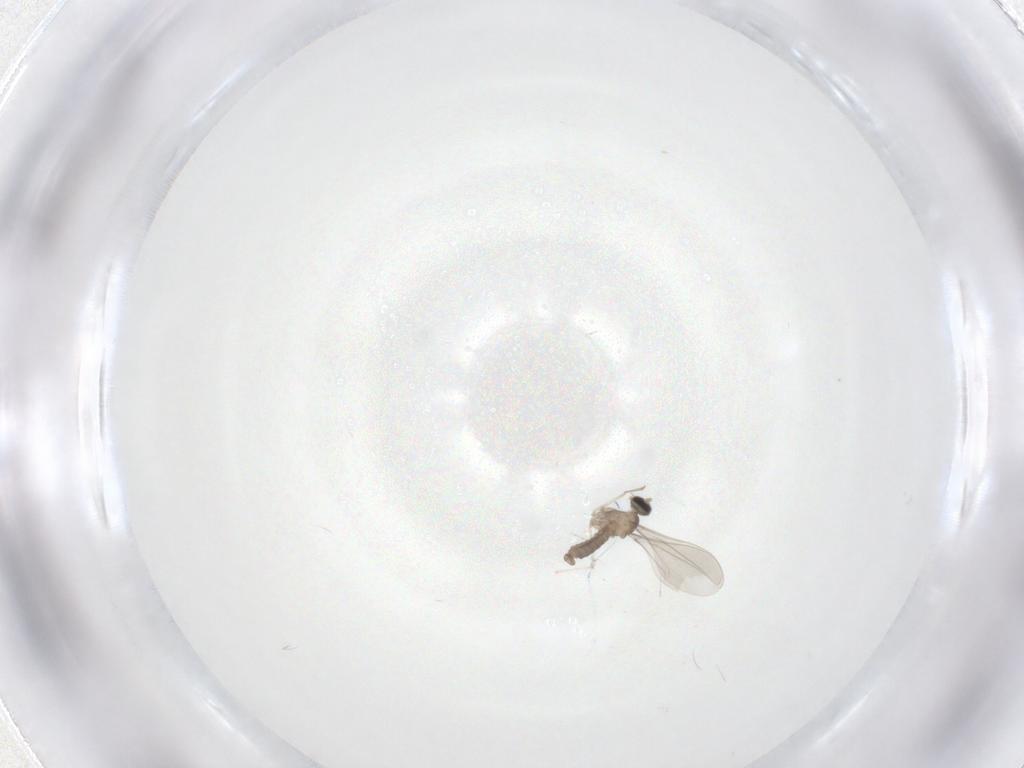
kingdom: Animalia
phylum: Arthropoda
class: Insecta
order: Diptera
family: Cecidomyiidae
